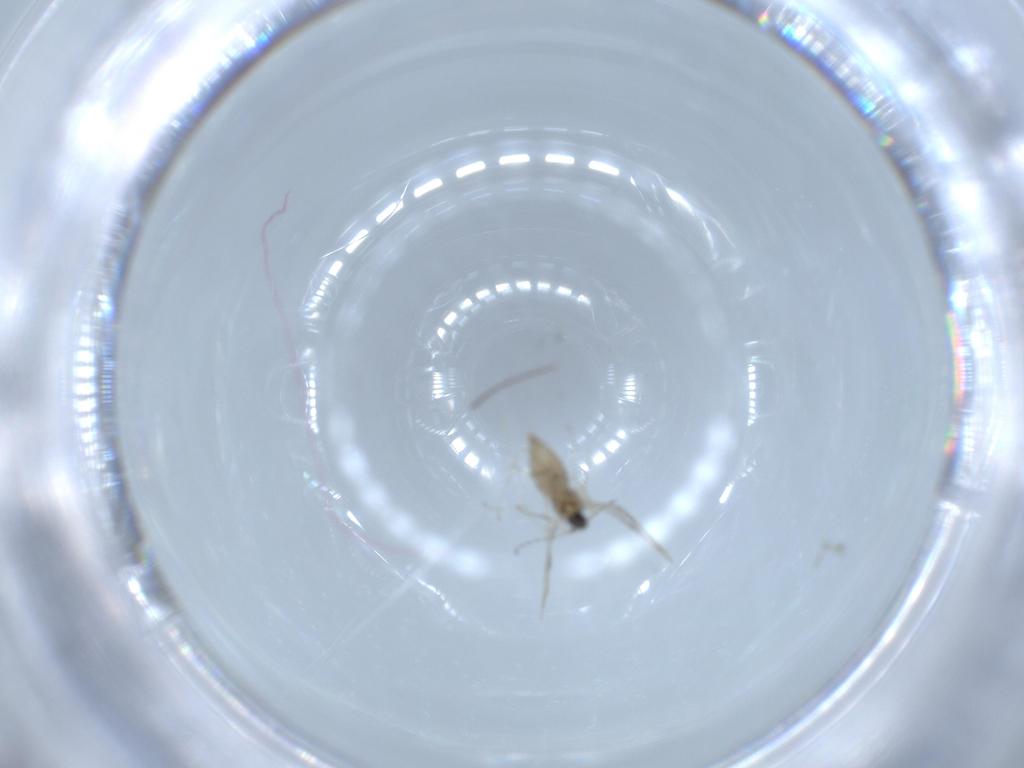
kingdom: Animalia
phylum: Arthropoda
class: Insecta
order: Diptera
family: Cecidomyiidae
